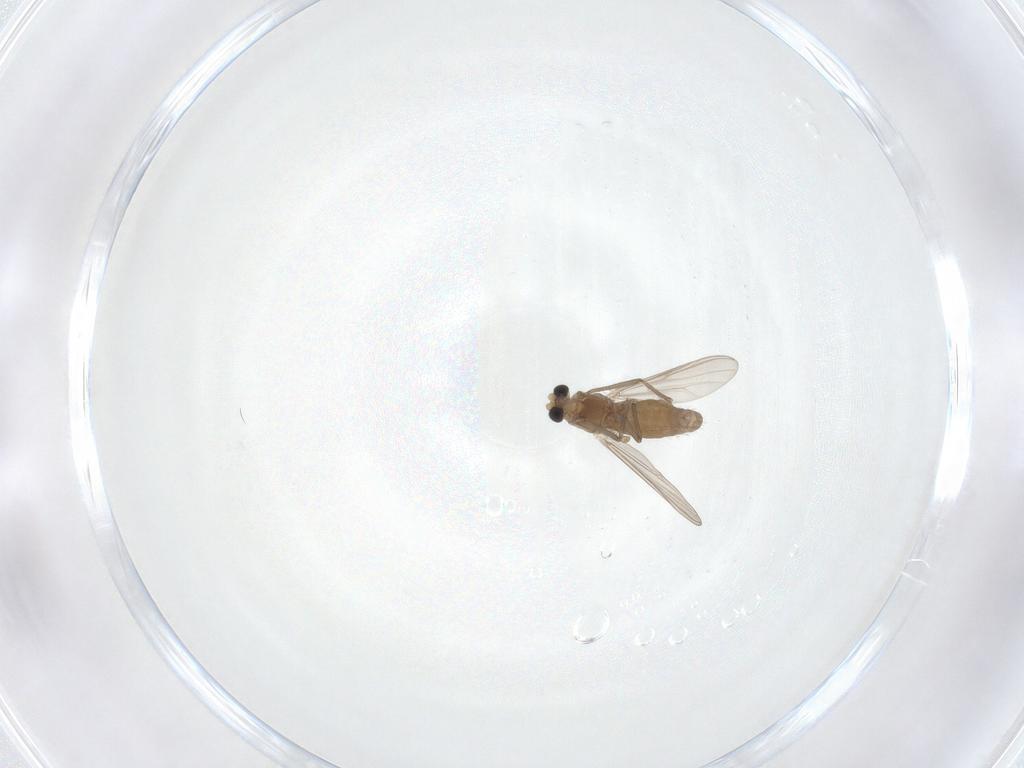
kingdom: Animalia
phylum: Arthropoda
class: Insecta
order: Diptera
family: Chironomidae
